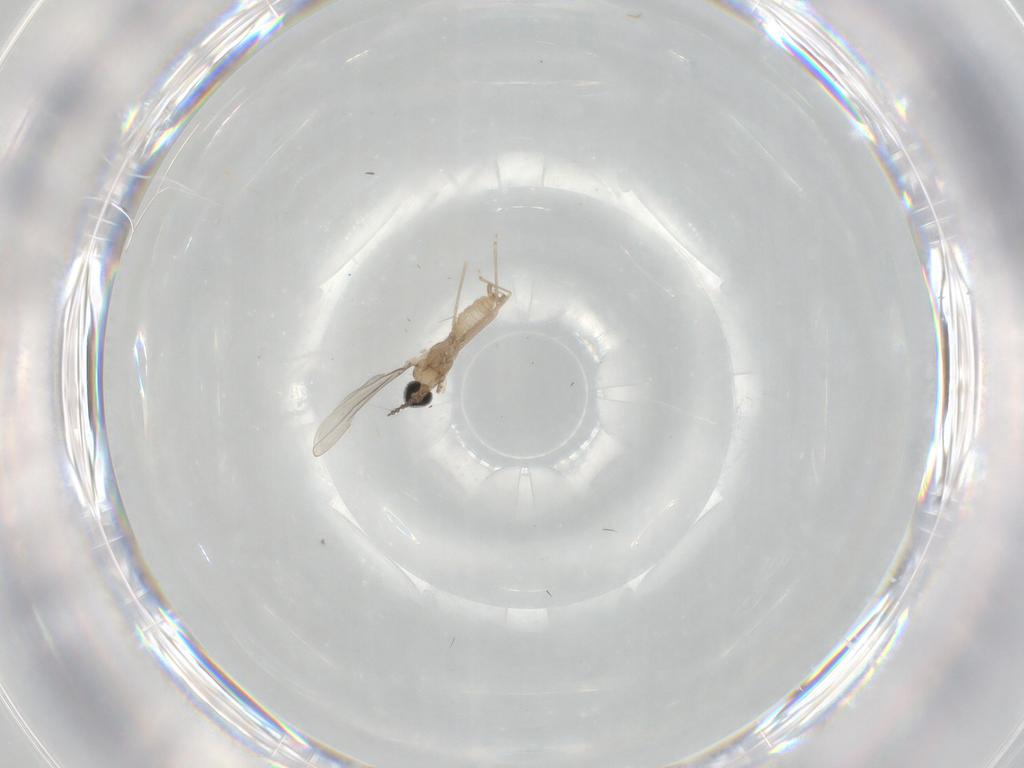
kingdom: Animalia
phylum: Arthropoda
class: Insecta
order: Diptera
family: Cecidomyiidae
